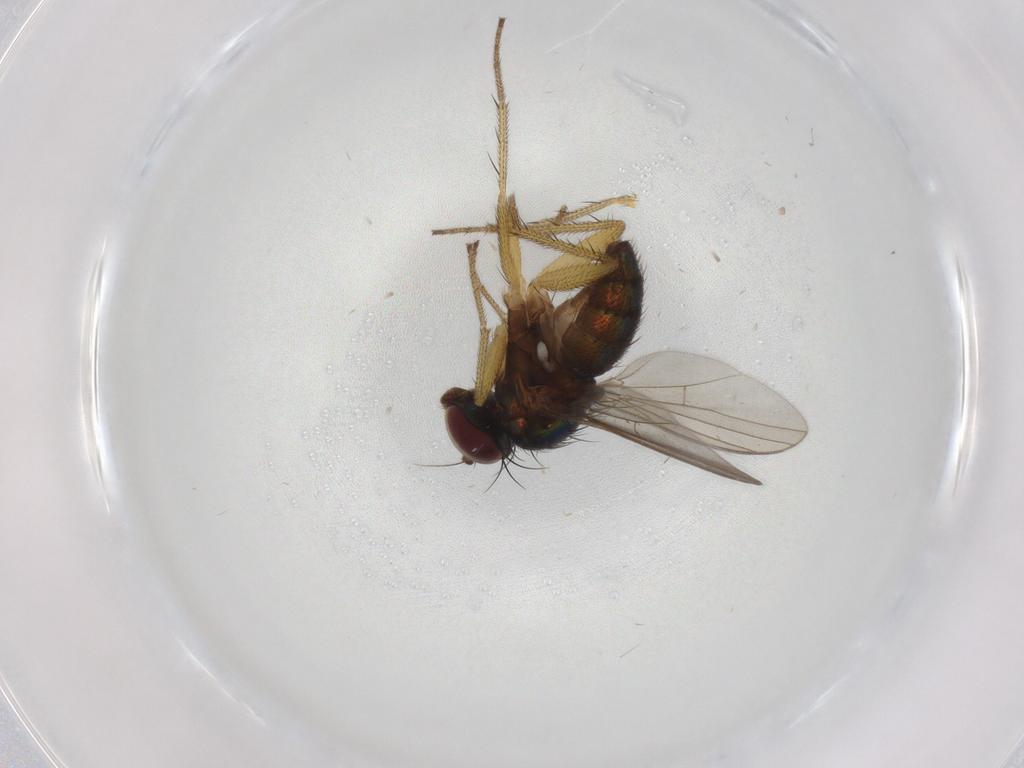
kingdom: Animalia
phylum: Arthropoda
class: Insecta
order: Diptera
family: Dolichopodidae
